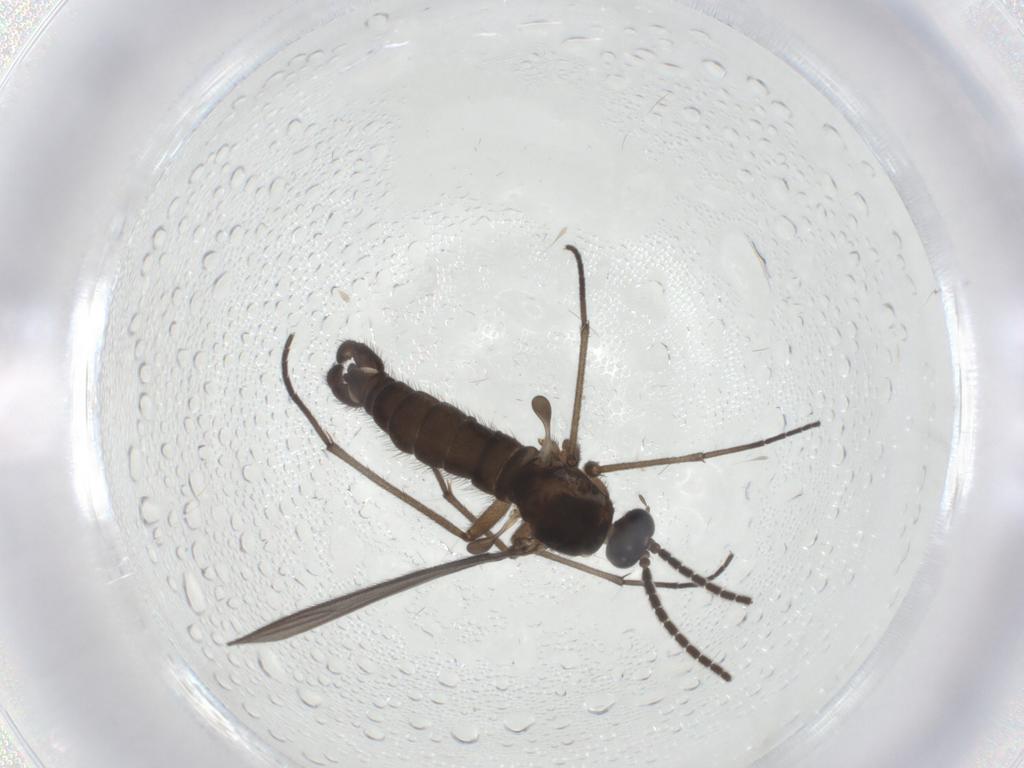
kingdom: Animalia
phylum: Arthropoda
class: Insecta
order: Diptera
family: Sciaridae
